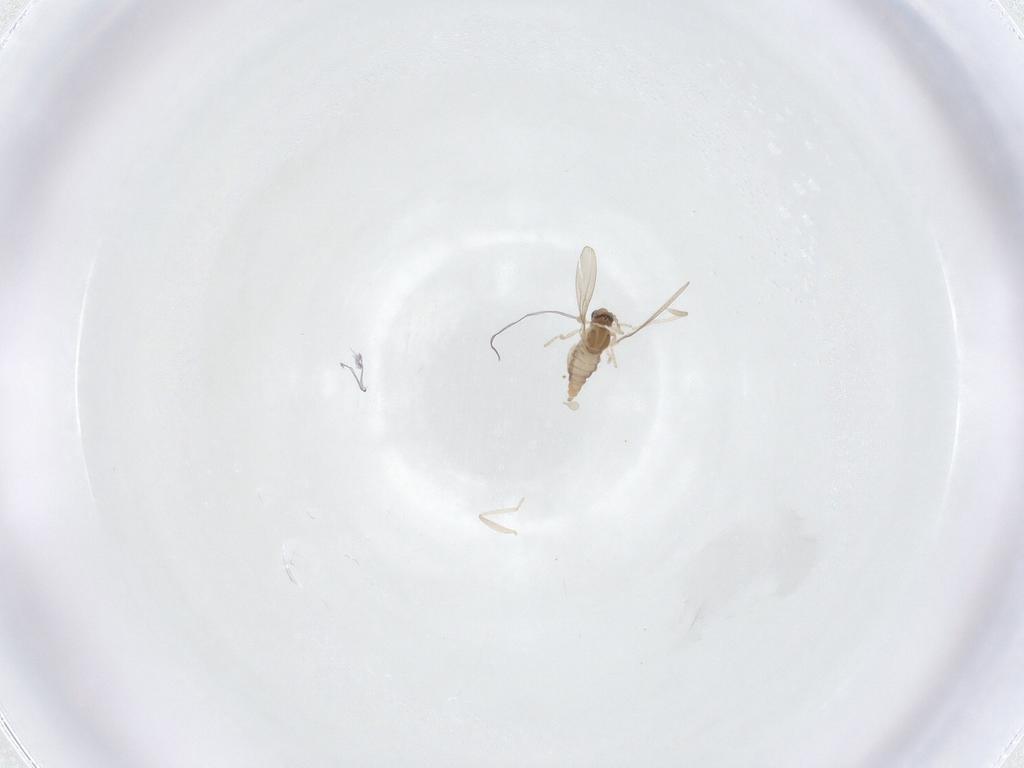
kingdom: Animalia
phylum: Arthropoda
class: Insecta
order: Diptera
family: Cecidomyiidae
